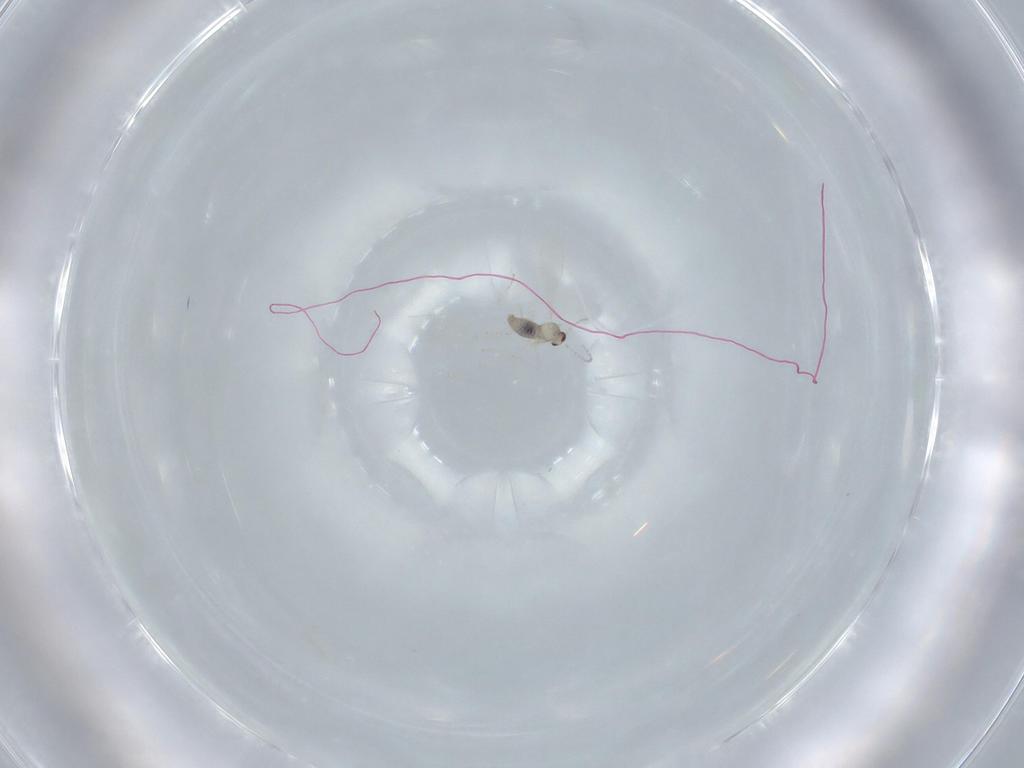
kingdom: Animalia
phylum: Arthropoda
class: Insecta
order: Diptera
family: Cecidomyiidae
